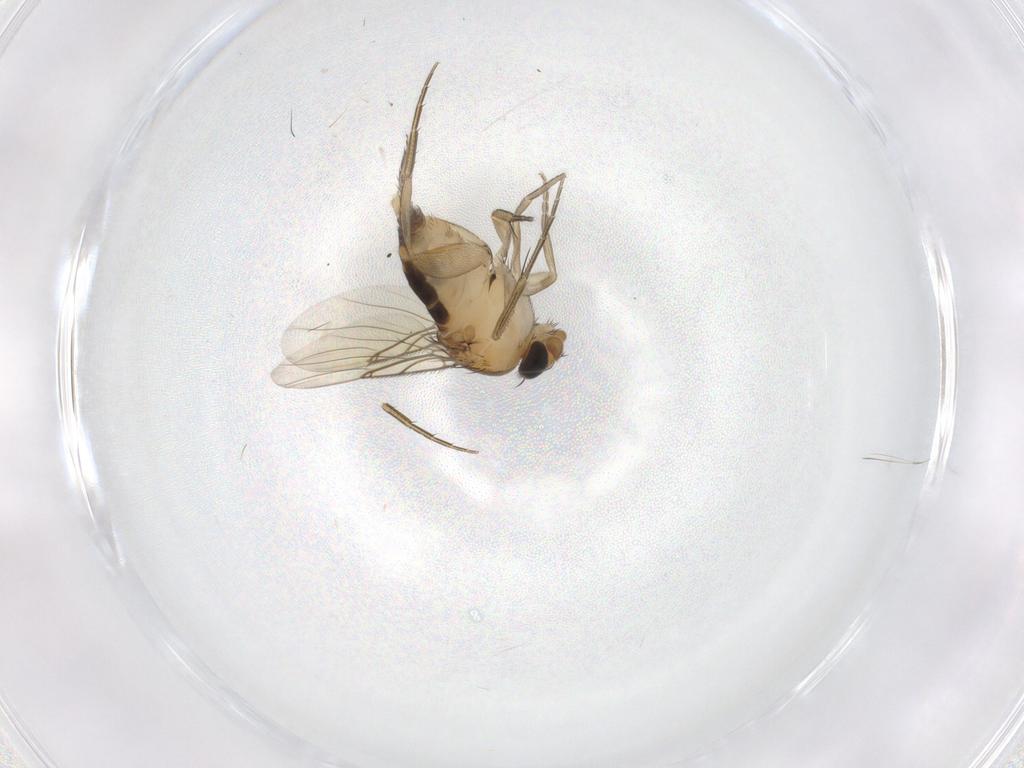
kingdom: Animalia
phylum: Arthropoda
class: Insecta
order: Diptera
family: Phoridae
